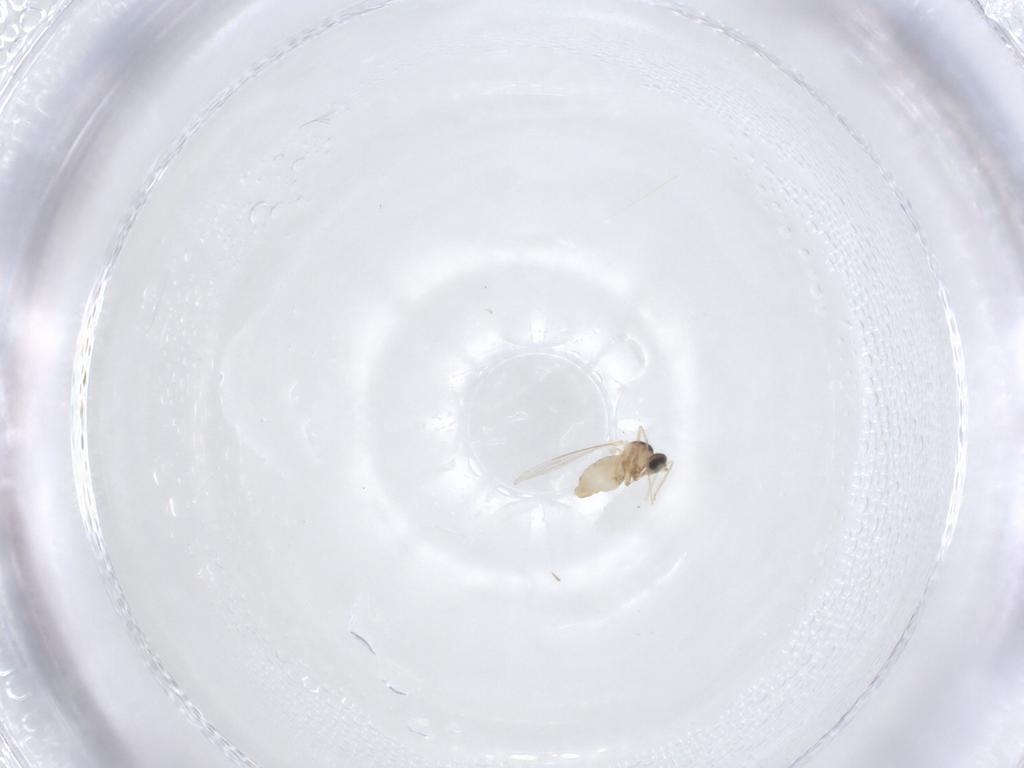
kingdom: Animalia
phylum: Arthropoda
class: Insecta
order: Diptera
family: Cecidomyiidae
